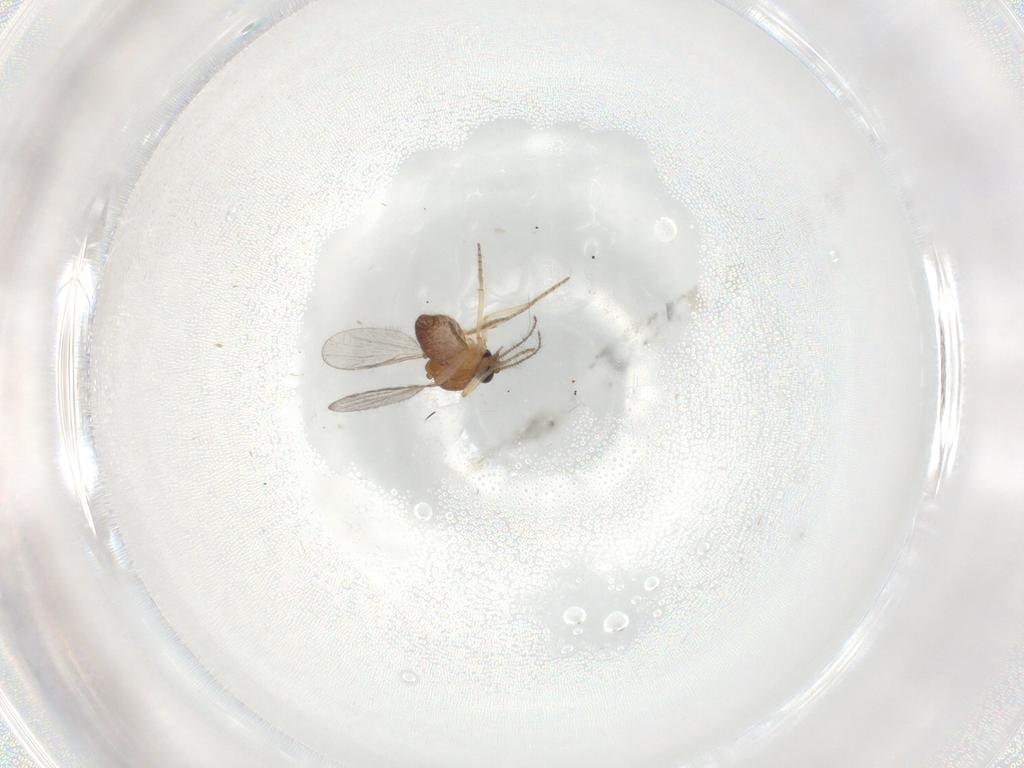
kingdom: Animalia
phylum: Arthropoda
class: Insecta
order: Diptera
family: Ceratopogonidae
